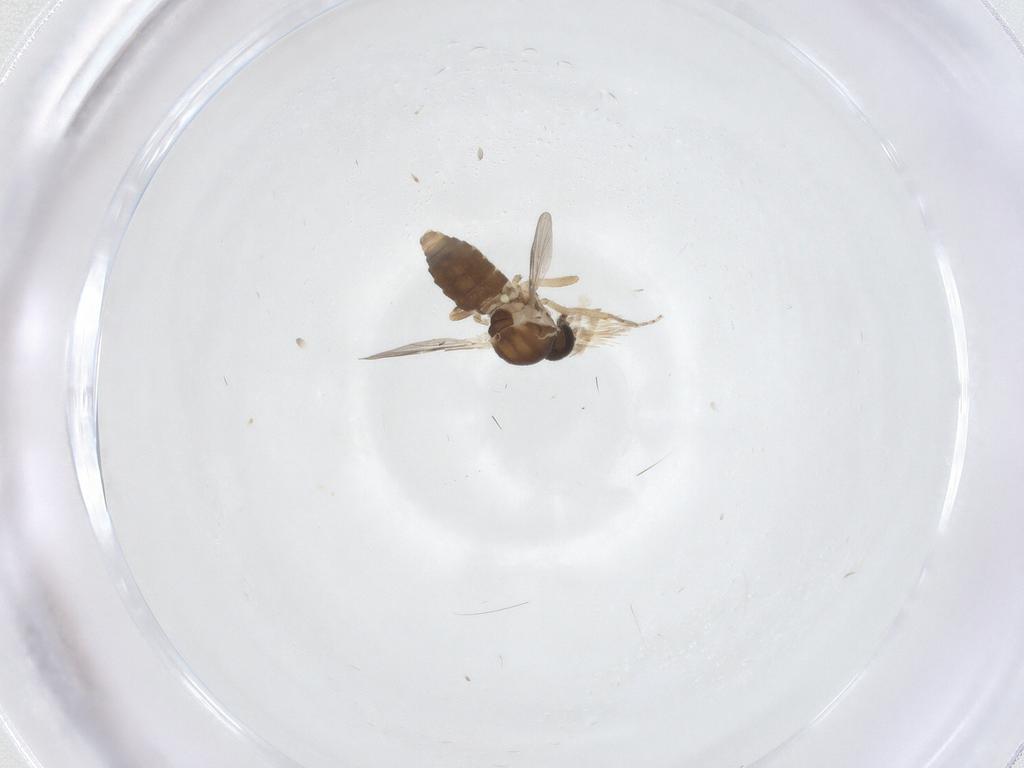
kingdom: Animalia
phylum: Arthropoda
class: Insecta
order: Diptera
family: Ceratopogonidae
